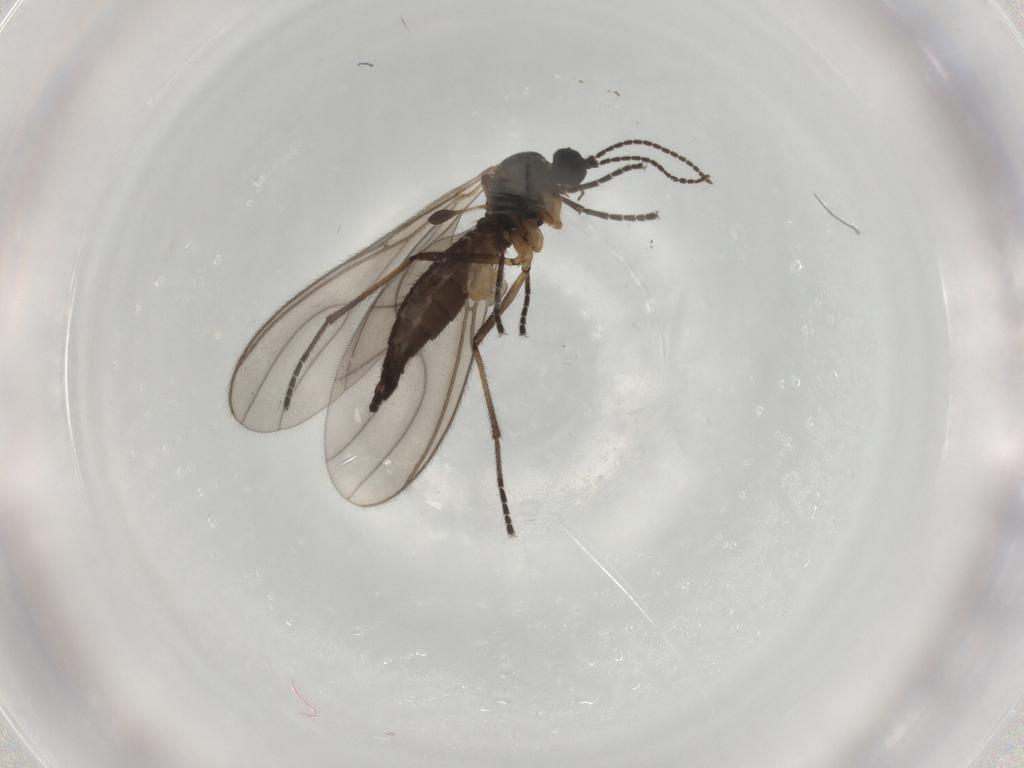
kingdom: Animalia
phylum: Arthropoda
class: Insecta
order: Diptera
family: Sciaridae
